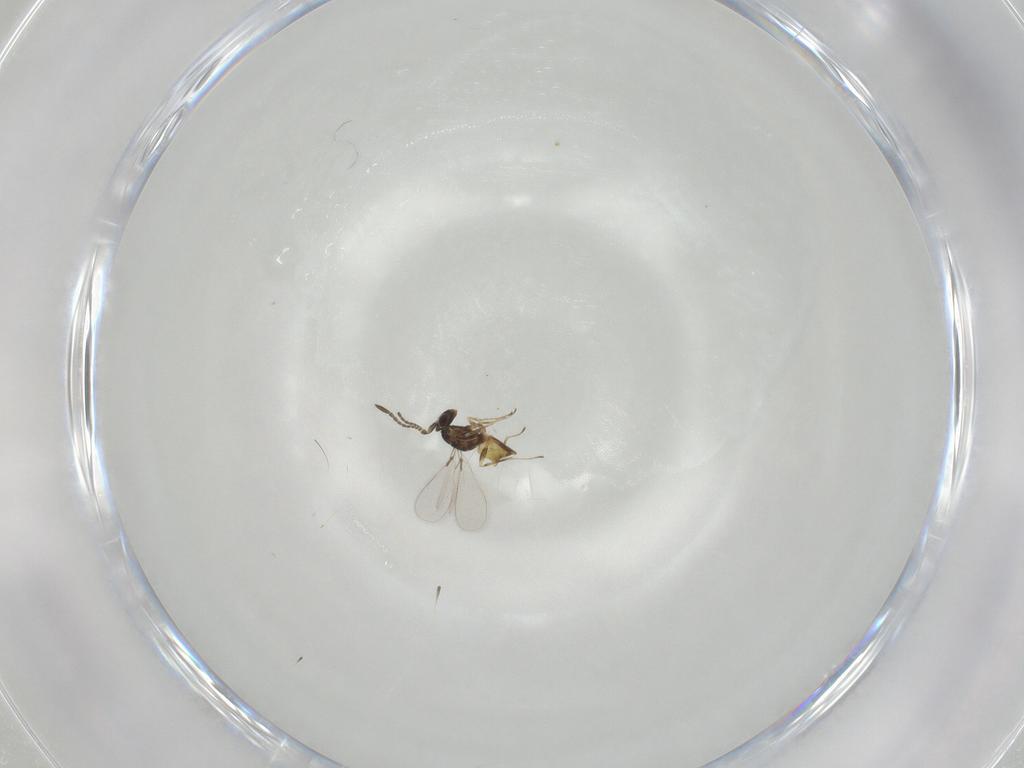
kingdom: Animalia
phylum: Arthropoda
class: Insecta
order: Hymenoptera
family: Mymaridae
